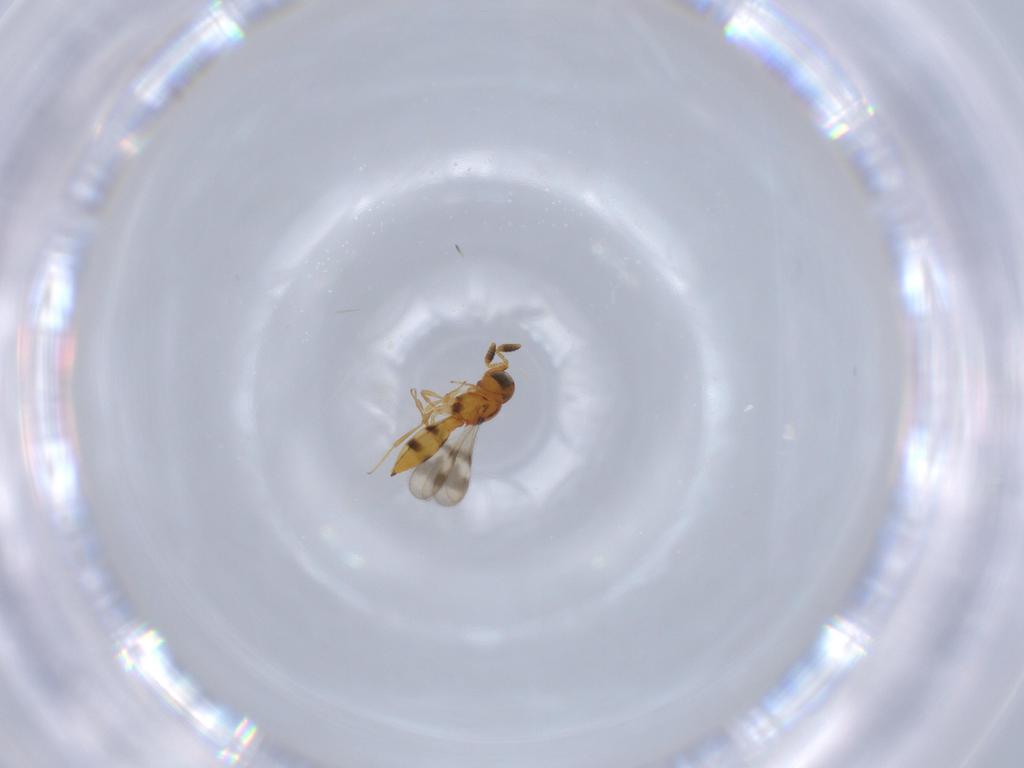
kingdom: Animalia
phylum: Arthropoda
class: Insecta
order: Hymenoptera
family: Scelionidae
